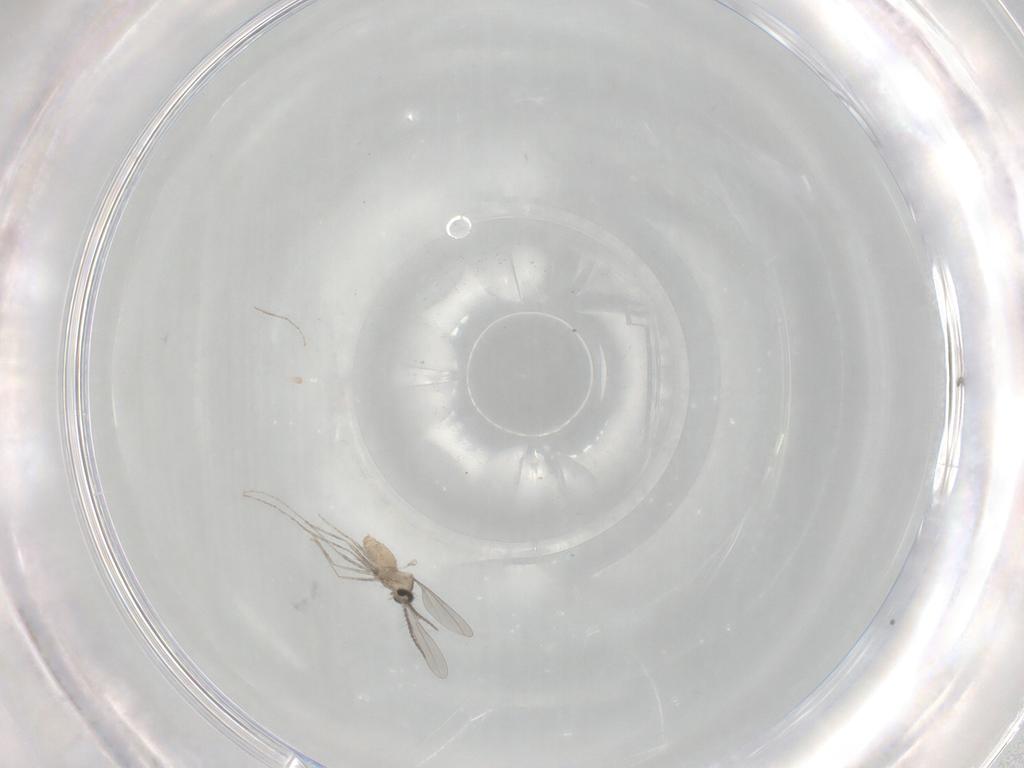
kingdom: Animalia
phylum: Arthropoda
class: Insecta
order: Diptera
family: Cecidomyiidae
